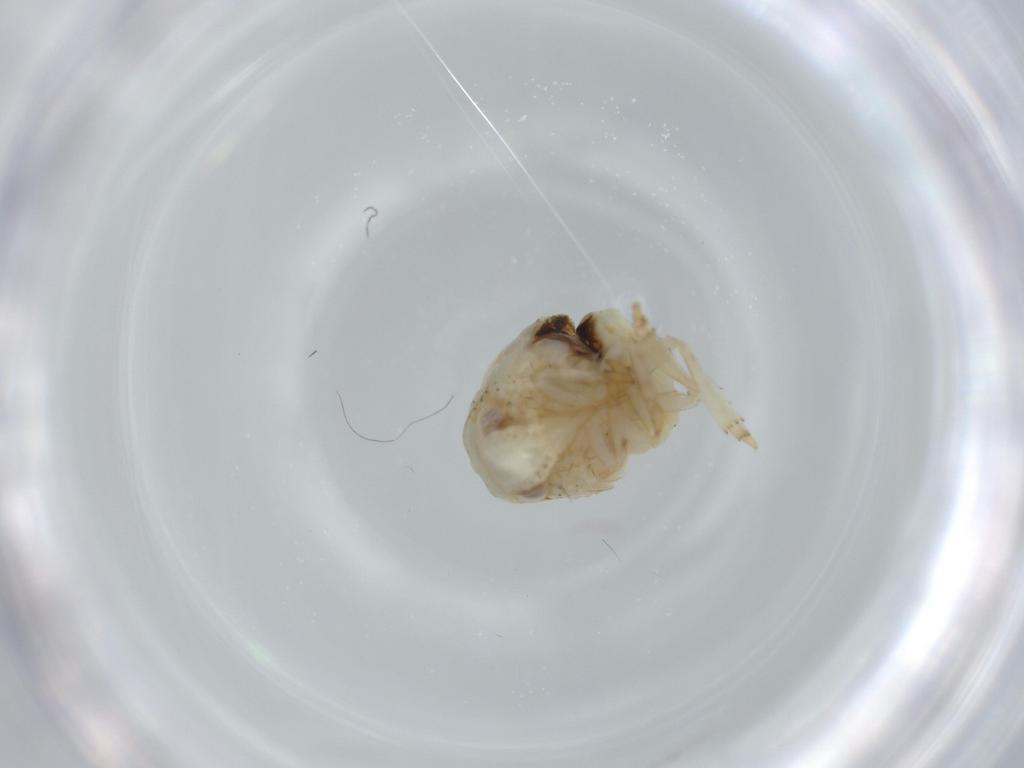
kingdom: Animalia
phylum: Arthropoda
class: Insecta
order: Hemiptera
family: Acanaloniidae
